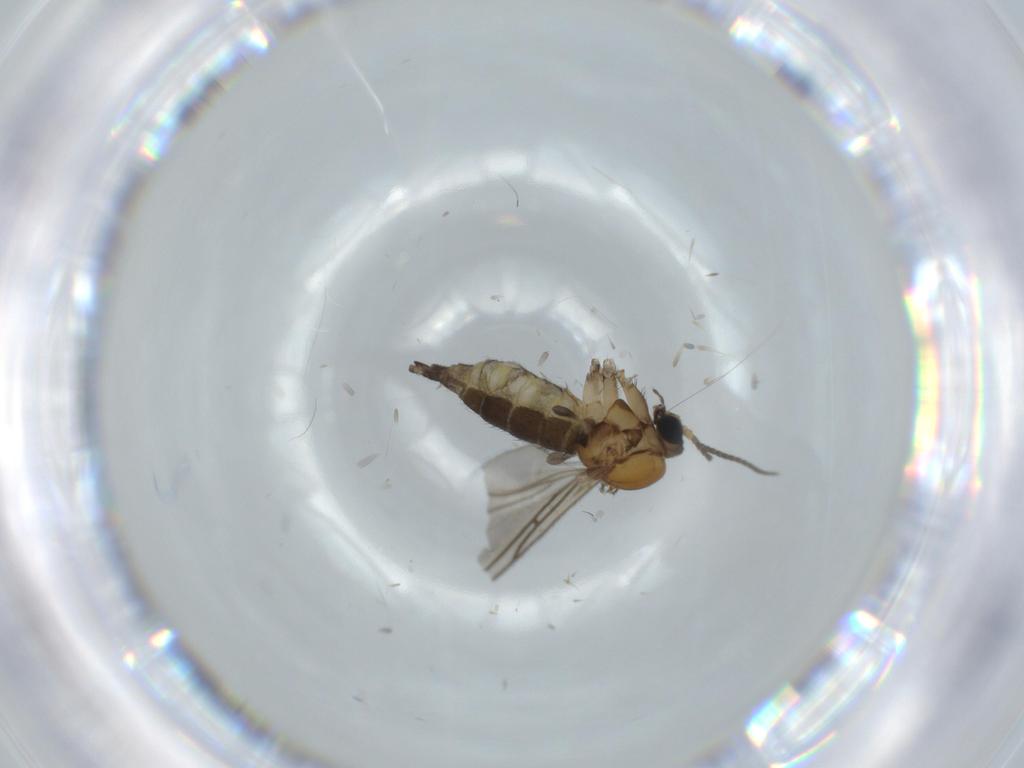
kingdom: Animalia
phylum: Arthropoda
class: Insecta
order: Diptera
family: Sciaridae
